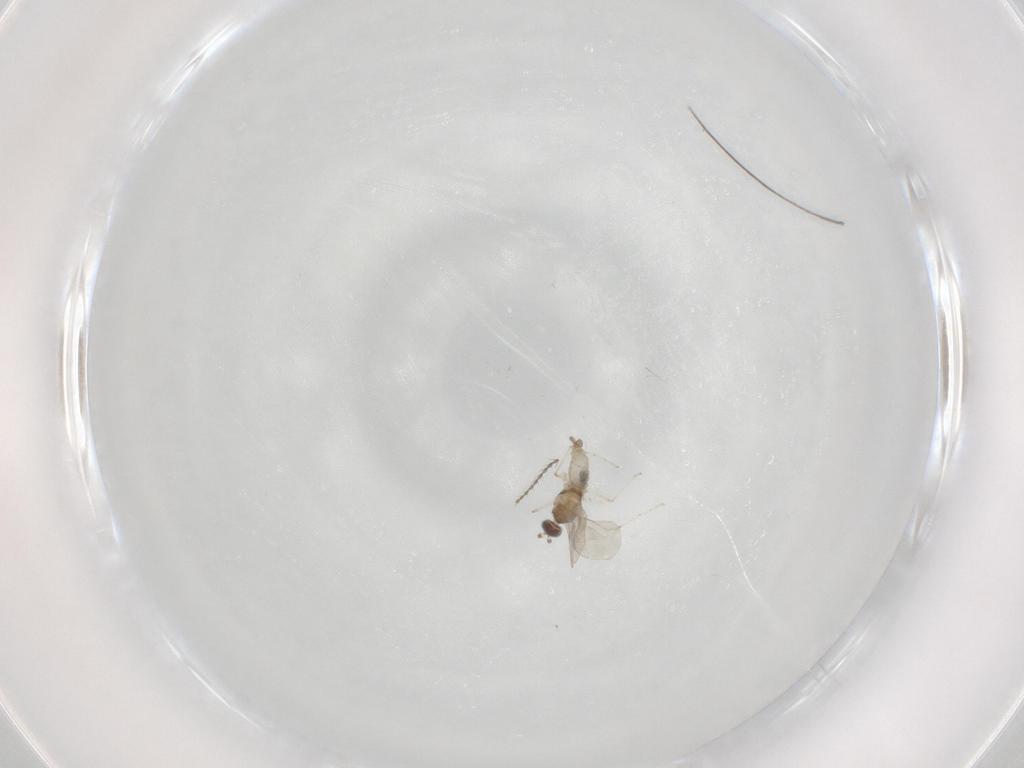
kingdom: Animalia
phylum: Arthropoda
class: Insecta
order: Diptera
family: Cecidomyiidae
